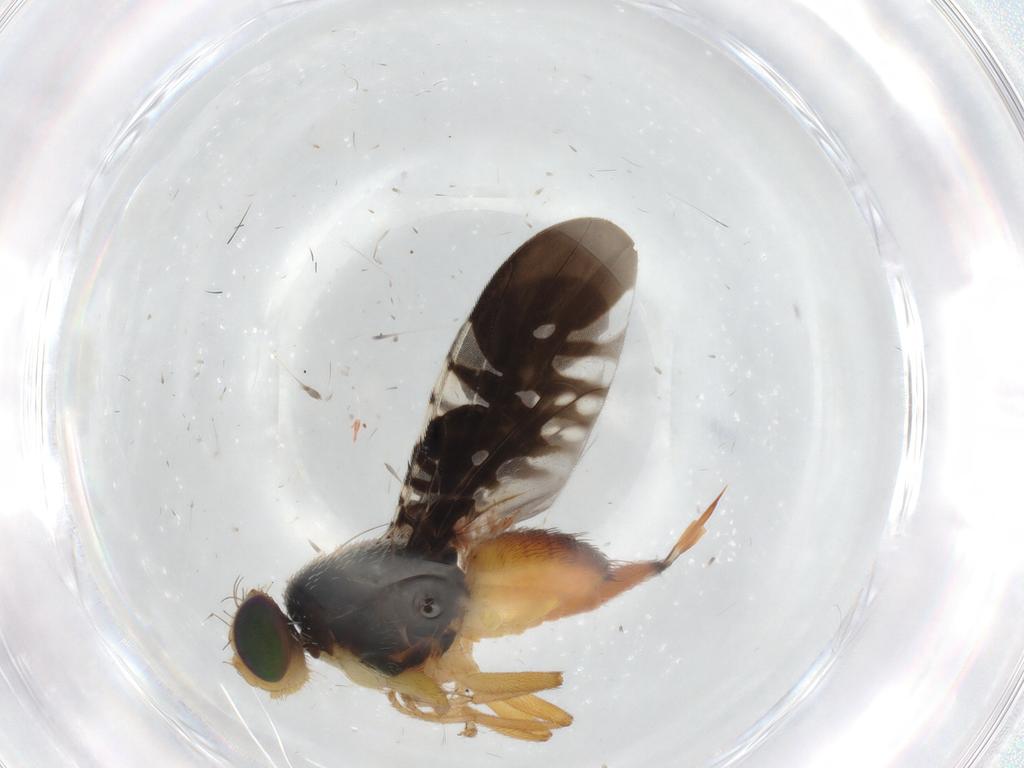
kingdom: Animalia
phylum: Arthropoda
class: Insecta
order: Diptera
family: Tephritidae
